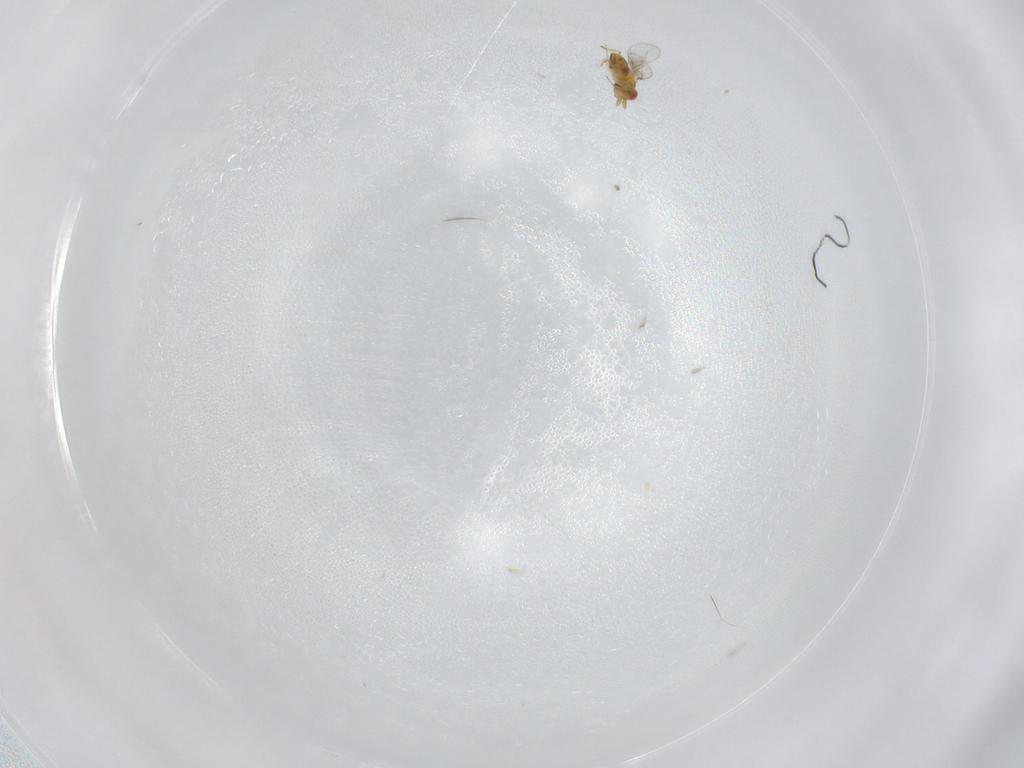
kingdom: Animalia
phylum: Arthropoda
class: Insecta
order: Hymenoptera
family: Trichogrammatidae
